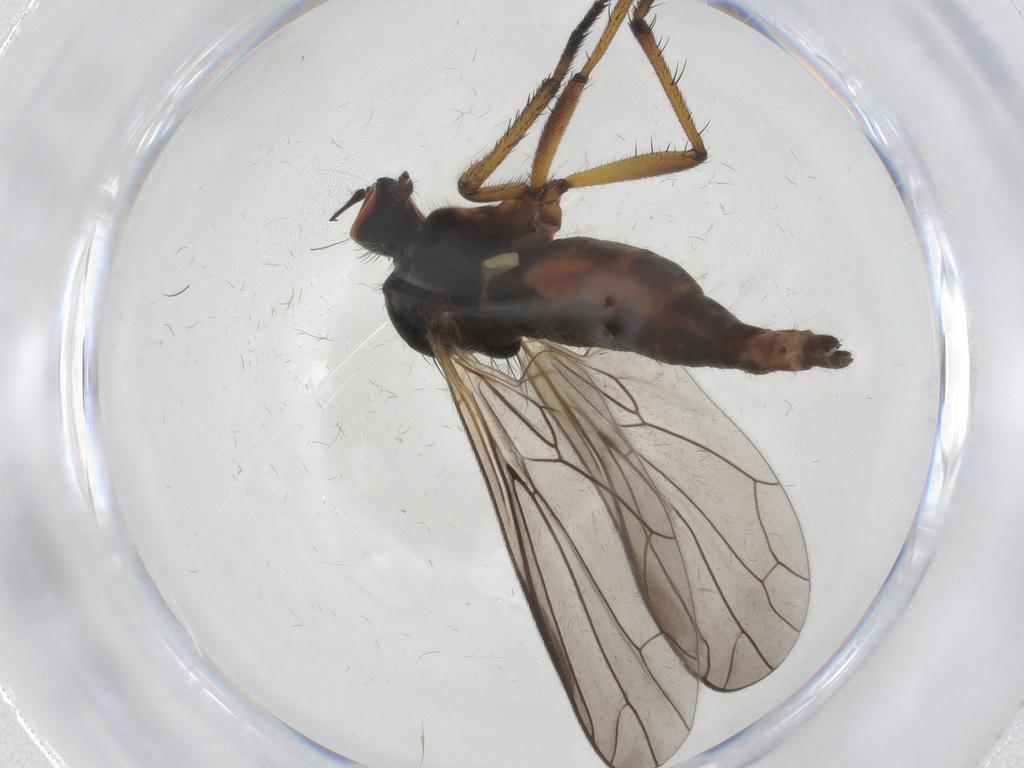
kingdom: Animalia
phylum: Arthropoda
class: Insecta
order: Diptera
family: Empididae
